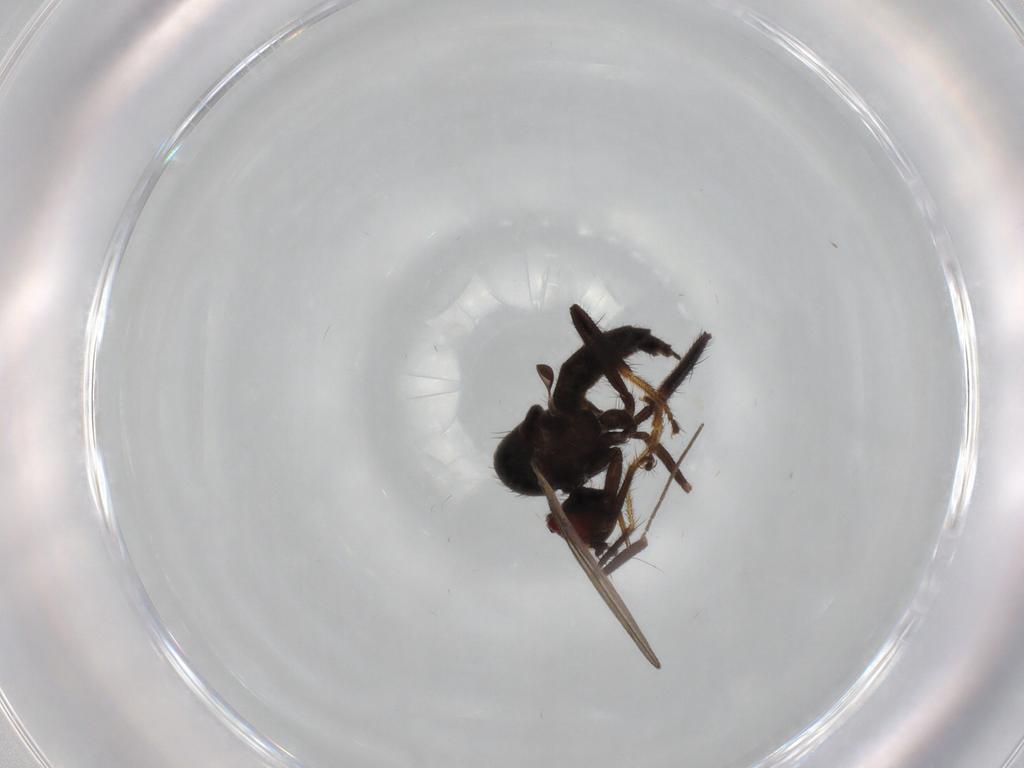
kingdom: Animalia
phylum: Arthropoda
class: Insecta
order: Diptera
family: Hybotidae
